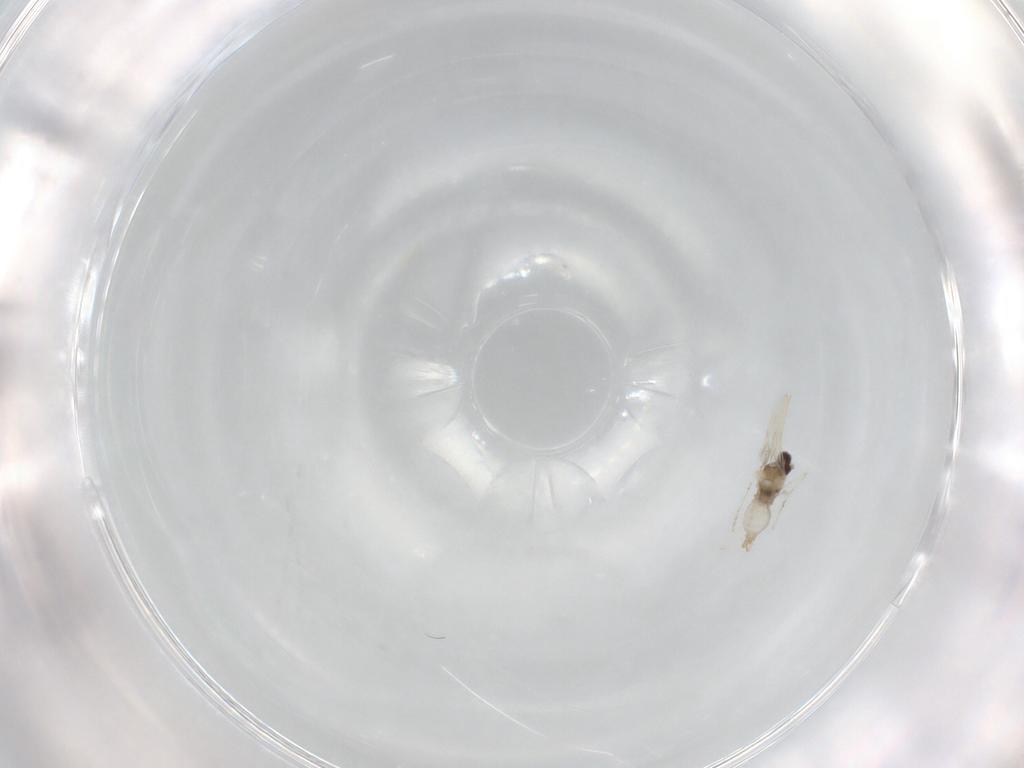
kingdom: Animalia
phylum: Arthropoda
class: Insecta
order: Diptera
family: Cecidomyiidae
